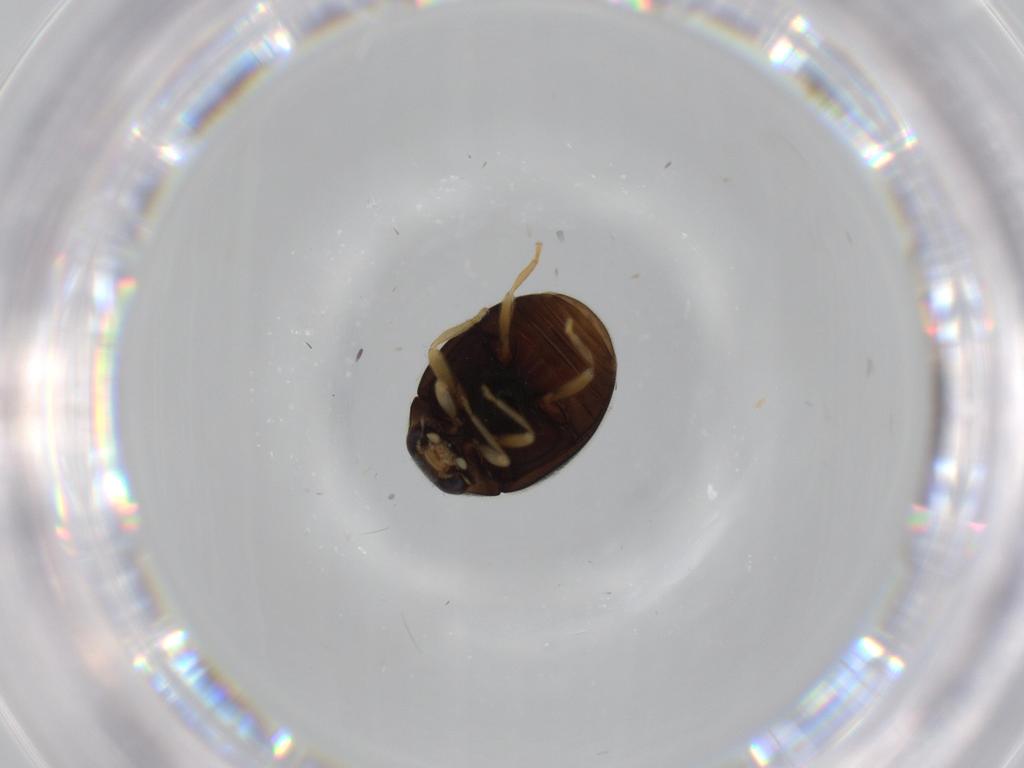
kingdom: Animalia
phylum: Arthropoda
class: Insecta
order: Coleoptera
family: Coccinellidae
